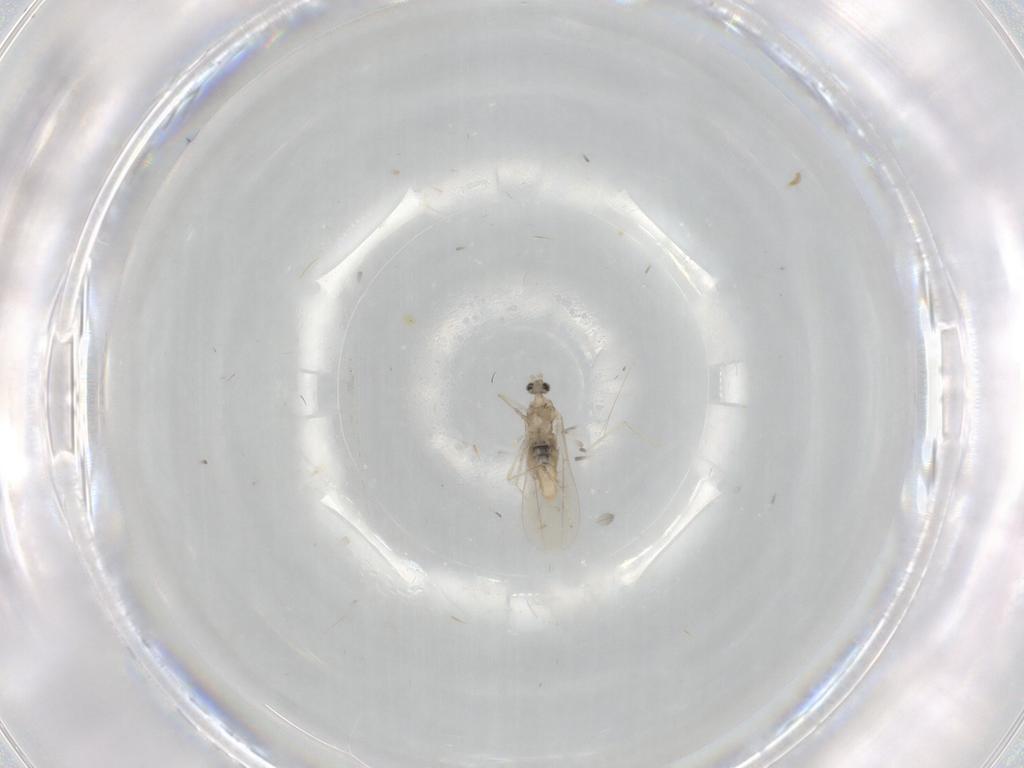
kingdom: Animalia
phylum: Arthropoda
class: Insecta
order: Diptera
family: Cecidomyiidae
